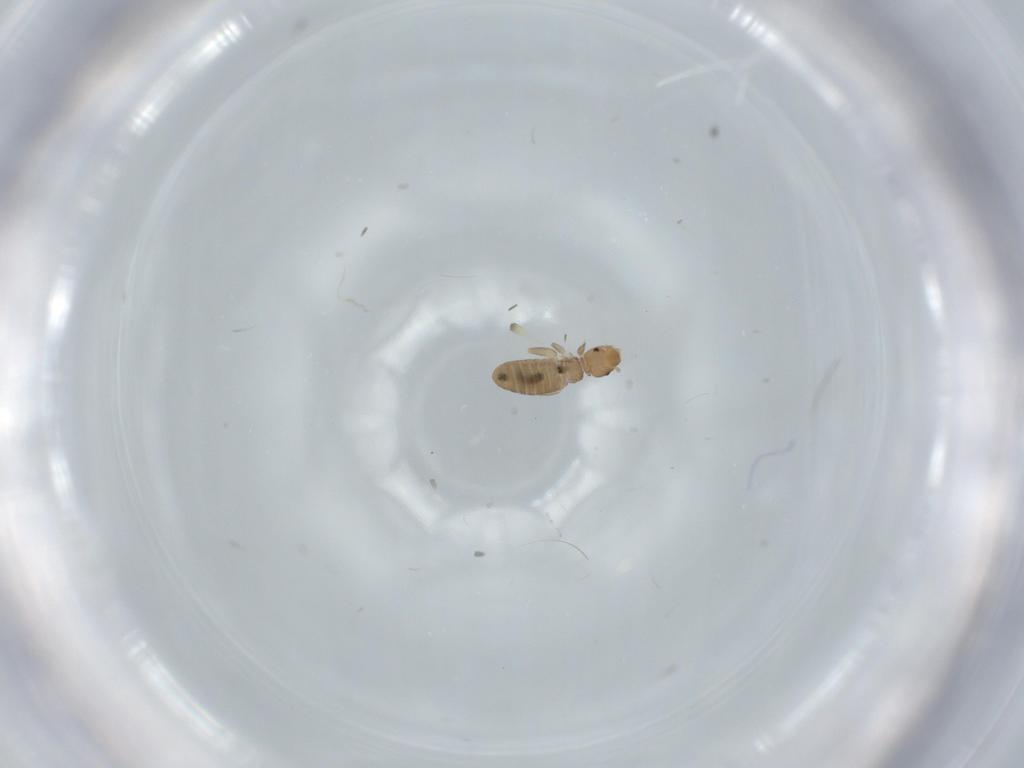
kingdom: Animalia
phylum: Arthropoda
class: Insecta
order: Psocodea
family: Liposcelididae
